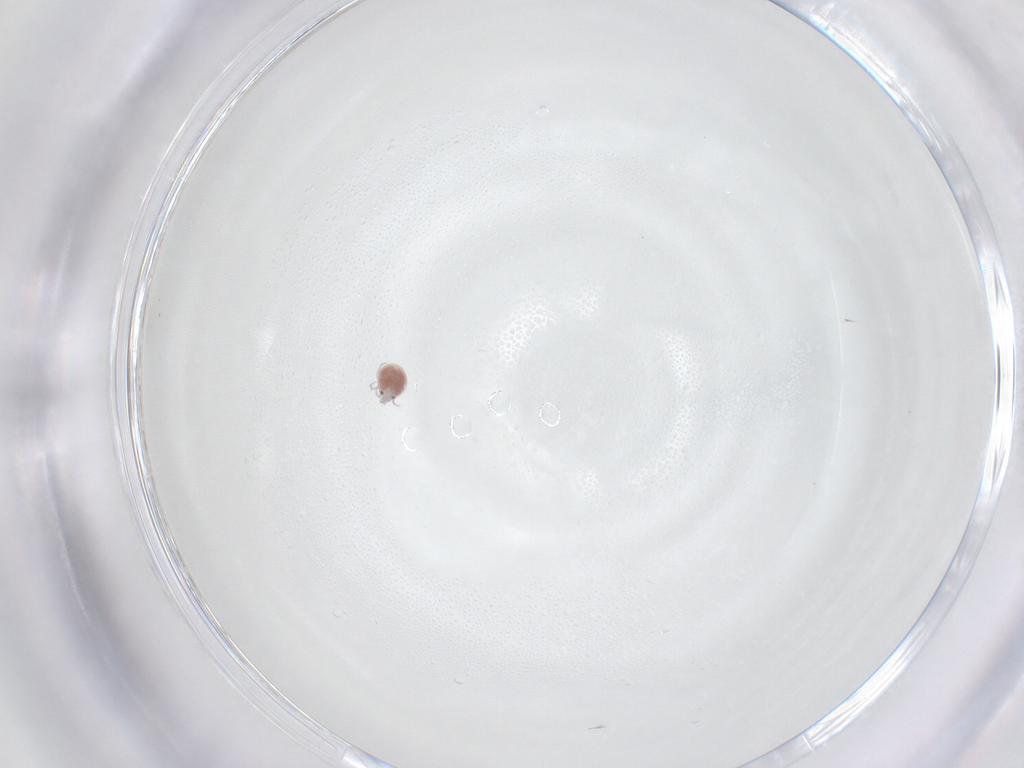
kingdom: Animalia
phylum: Arthropoda
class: Arachnida
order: Trombidiformes
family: Pionidae
